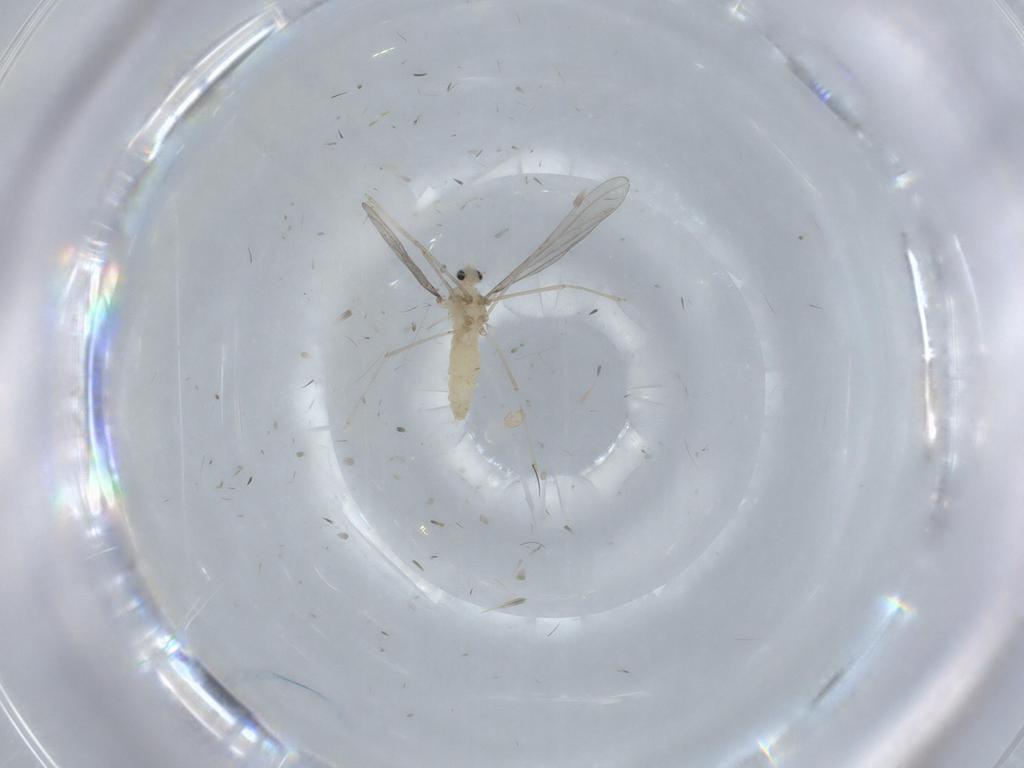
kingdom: Animalia
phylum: Arthropoda
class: Insecta
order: Diptera
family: Cecidomyiidae
